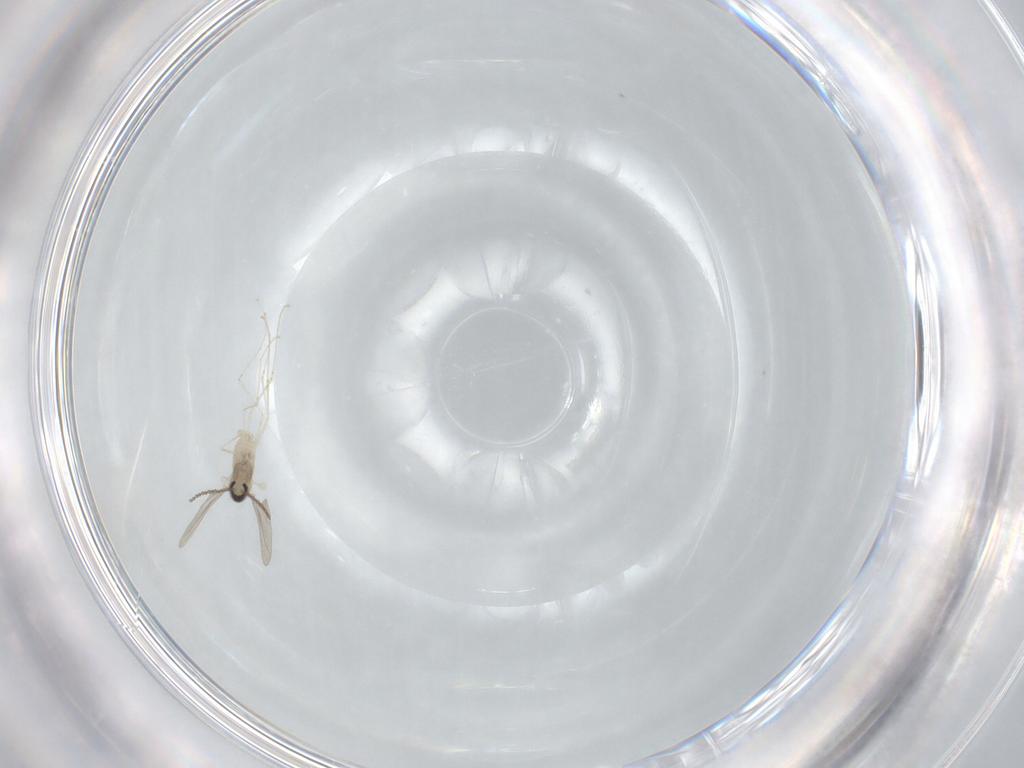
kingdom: Animalia
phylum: Arthropoda
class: Insecta
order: Diptera
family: Cecidomyiidae
